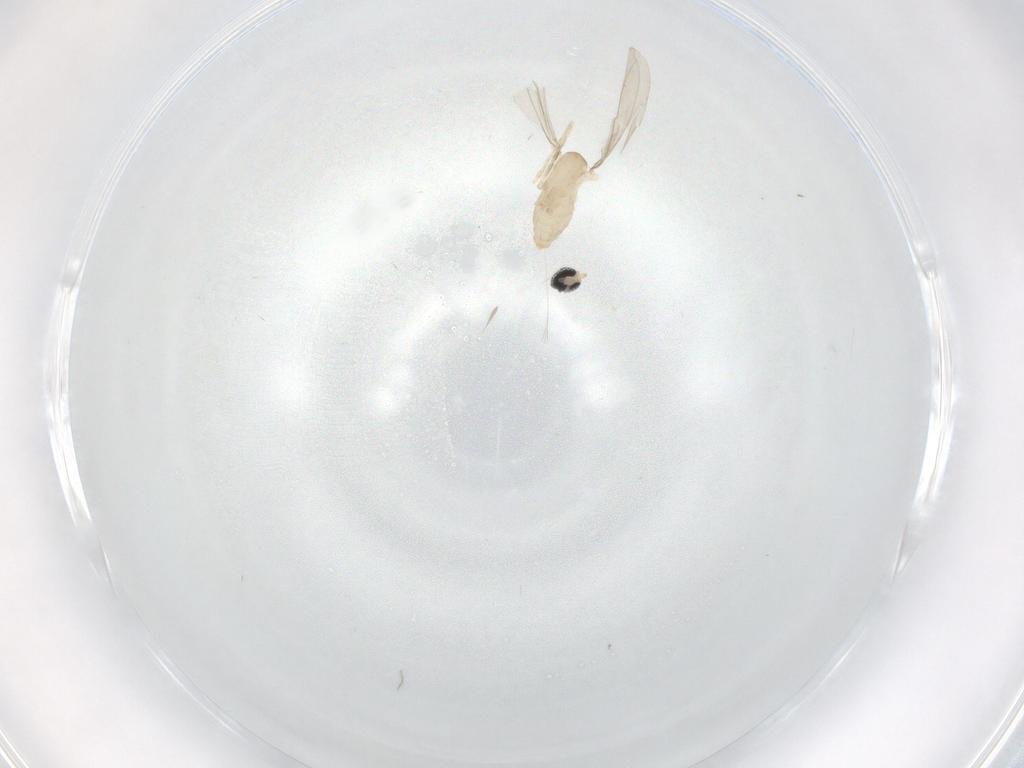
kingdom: Animalia
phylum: Arthropoda
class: Insecta
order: Diptera
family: Cecidomyiidae
